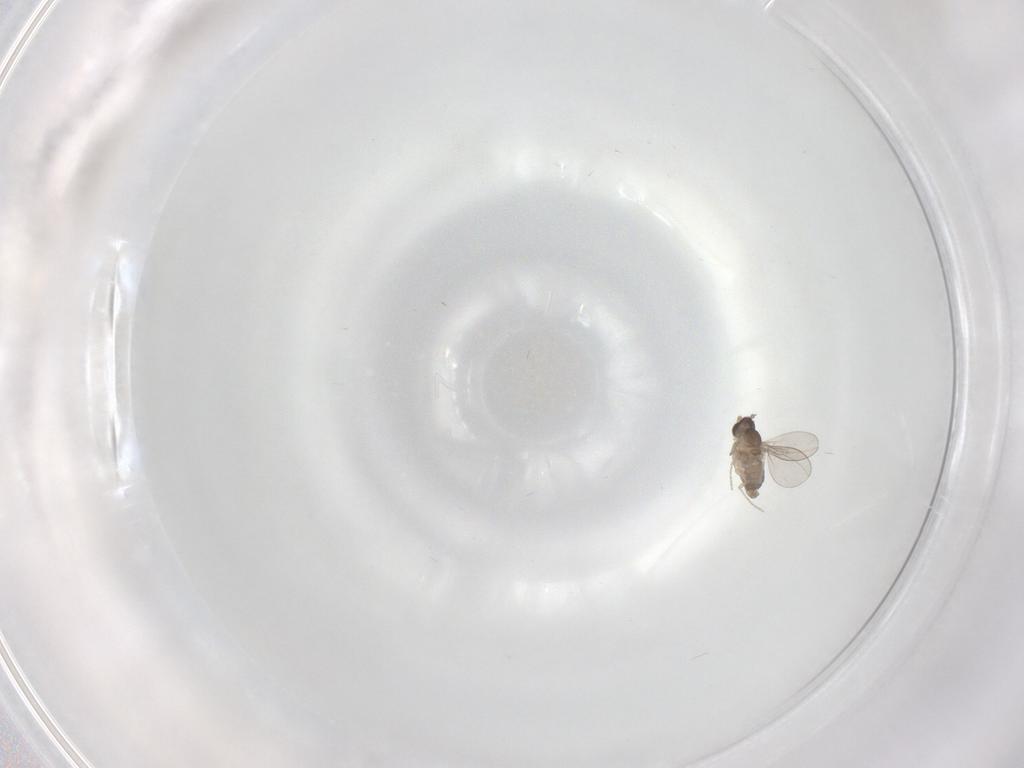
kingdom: Animalia
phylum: Arthropoda
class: Insecta
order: Diptera
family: Cecidomyiidae
